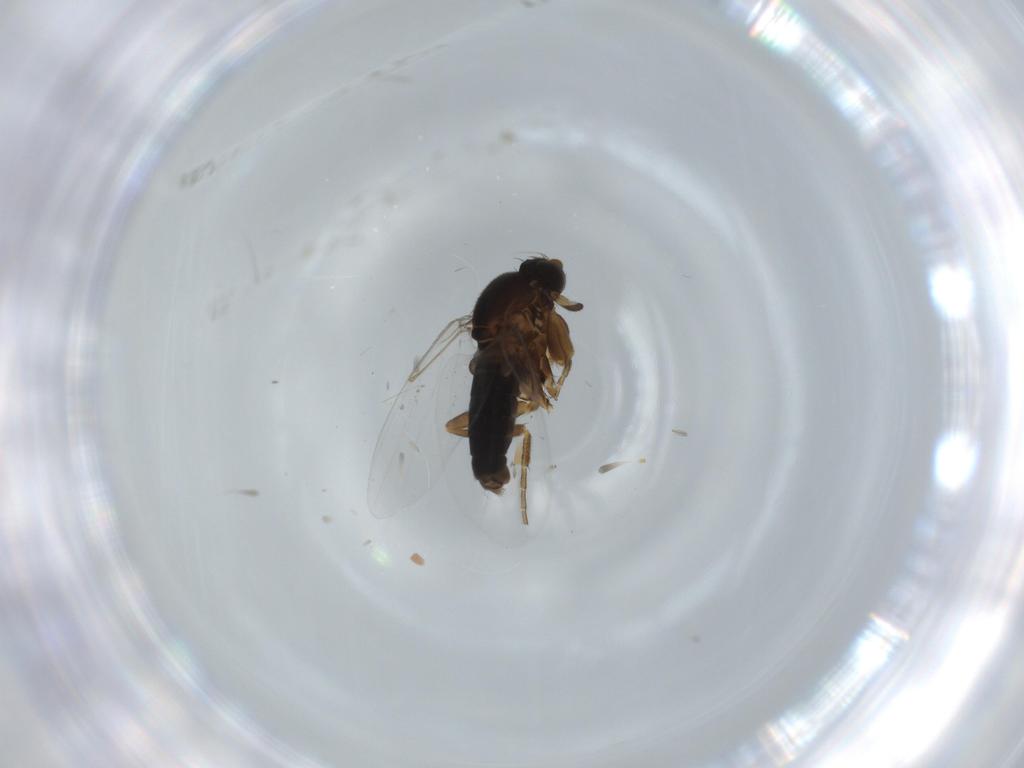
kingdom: Animalia
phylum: Arthropoda
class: Insecta
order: Diptera
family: Phoridae
